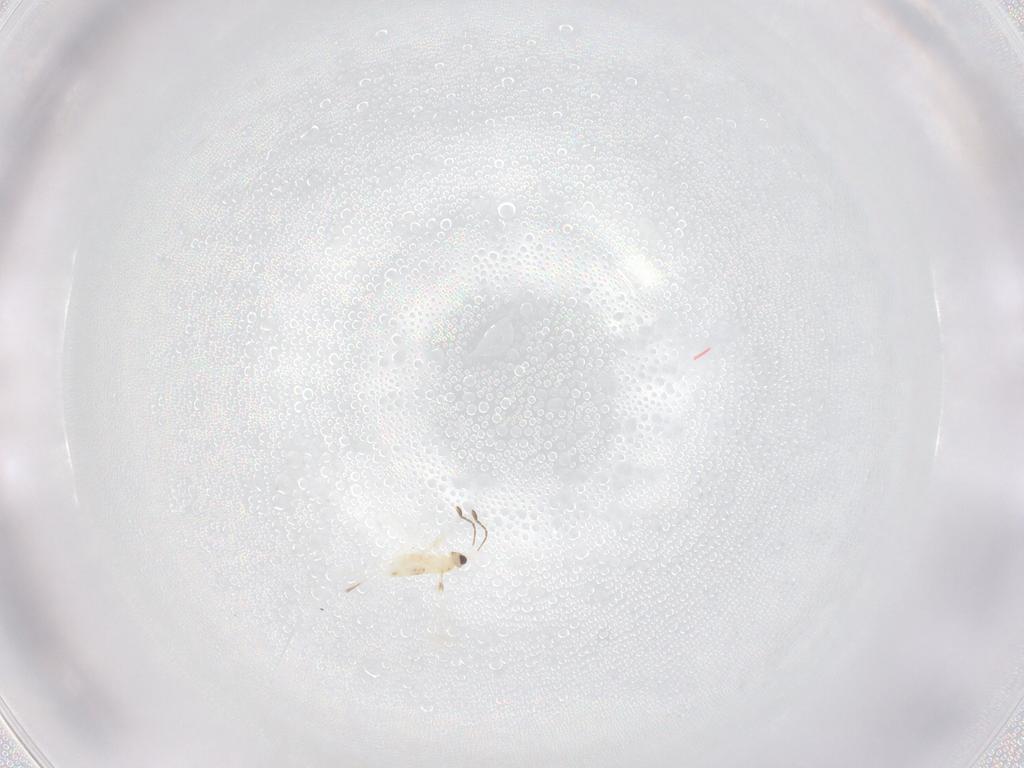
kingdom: Animalia
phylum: Arthropoda
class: Insecta
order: Hymenoptera
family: Mymaridae
